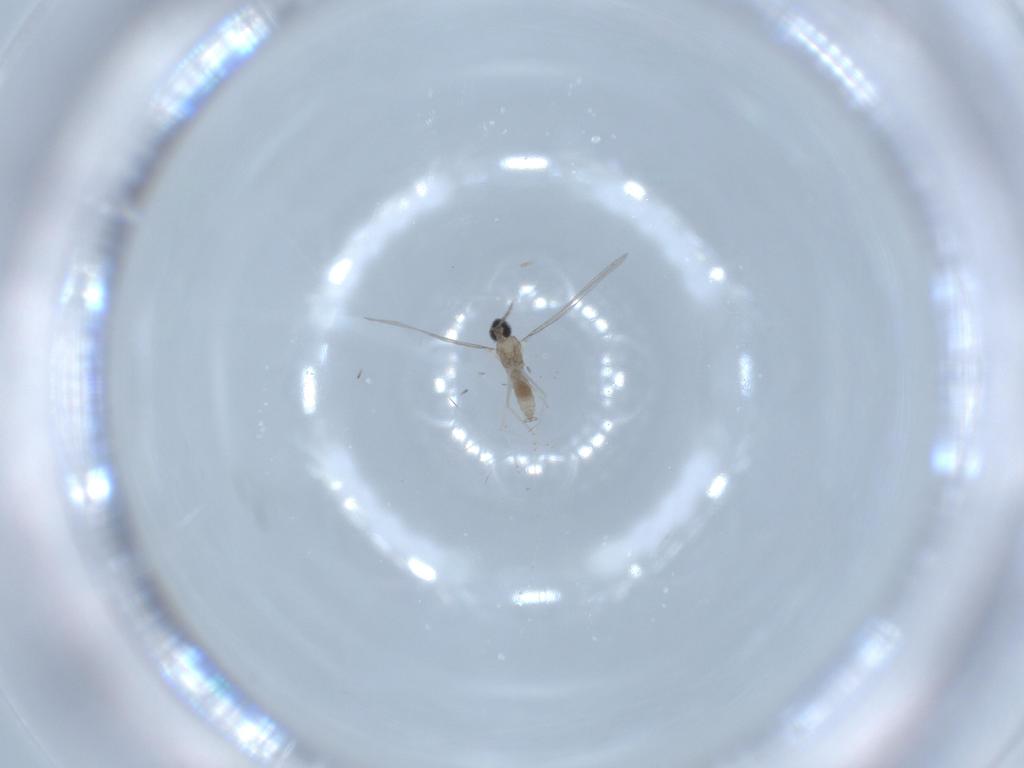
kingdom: Animalia
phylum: Arthropoda
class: Insecta
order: Diptera
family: Sciaridae
